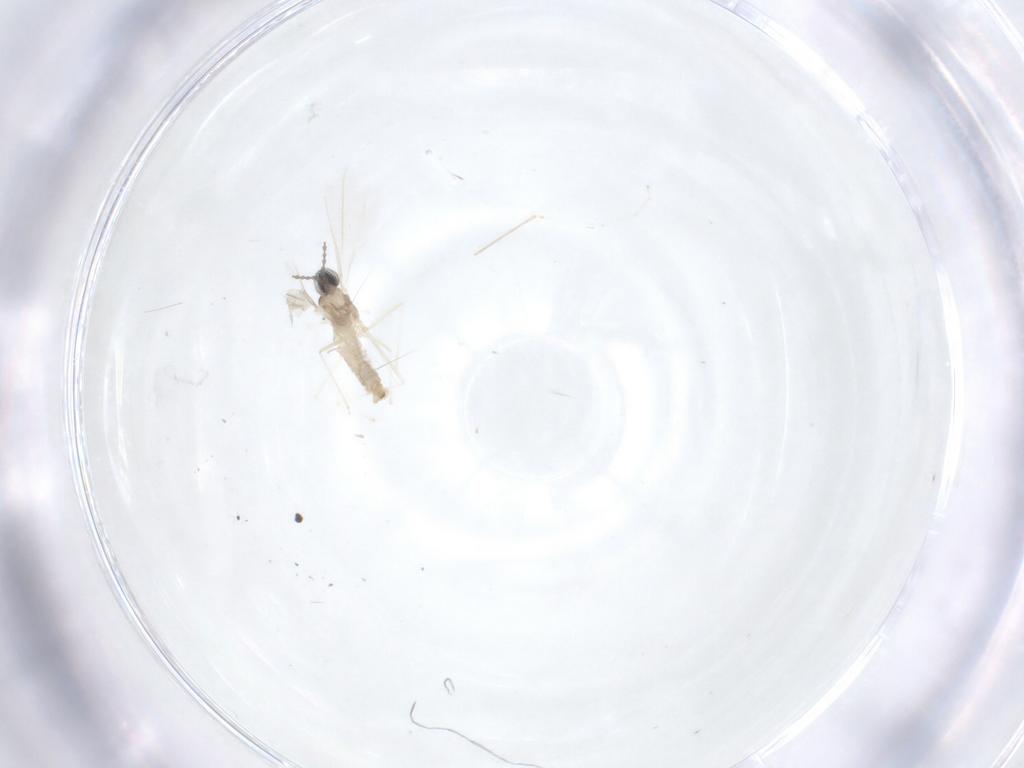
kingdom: Animalia
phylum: Arthropoda
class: Insecta
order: Diptera
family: Cecidomyiidae
